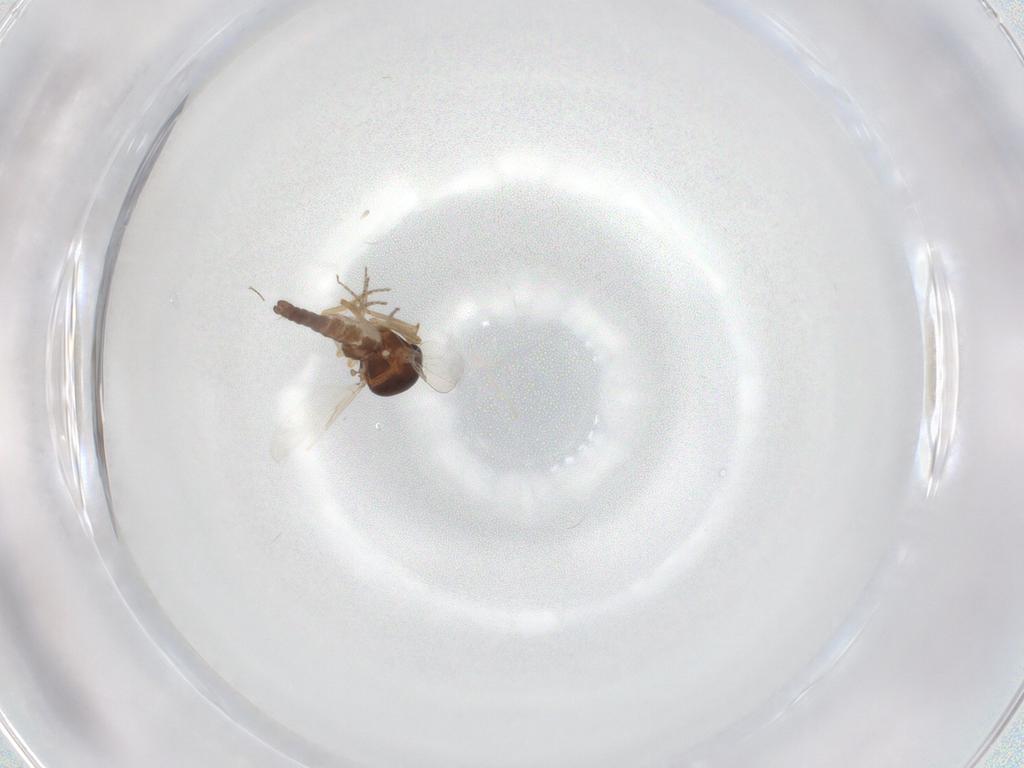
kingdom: Animalia
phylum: Arthropoda
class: Insecta
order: Diptera
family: Ceratopogonidae
